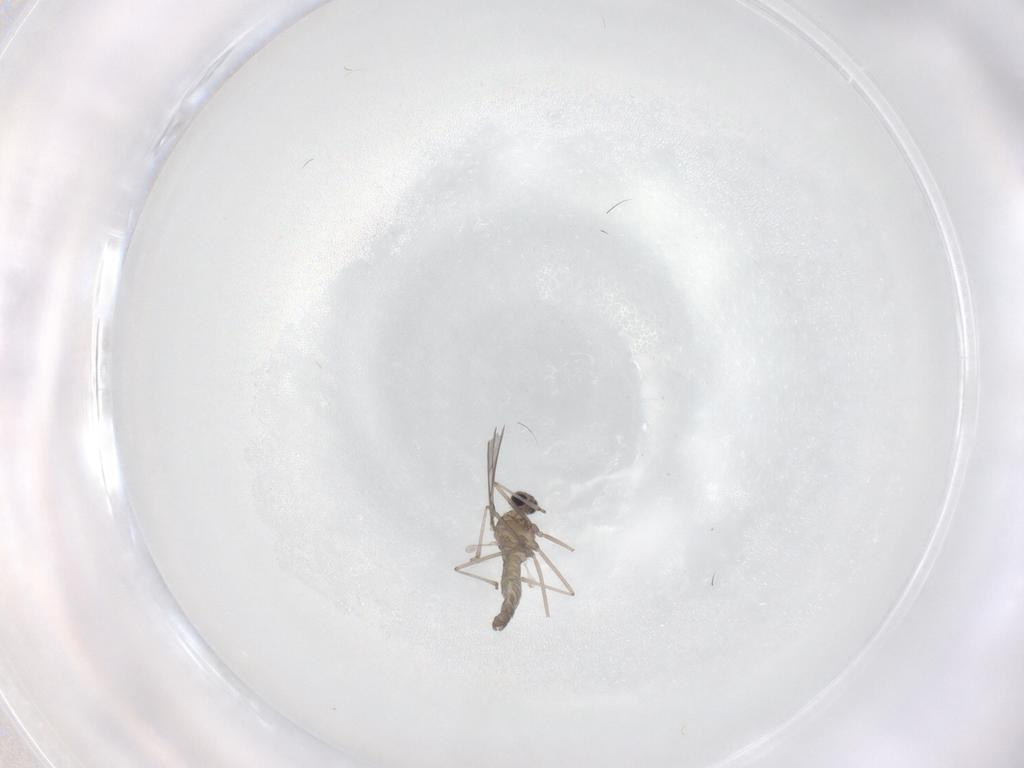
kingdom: Animalia
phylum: Arthropoda
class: Insecta
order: Diptera
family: Cecidomyiidae
